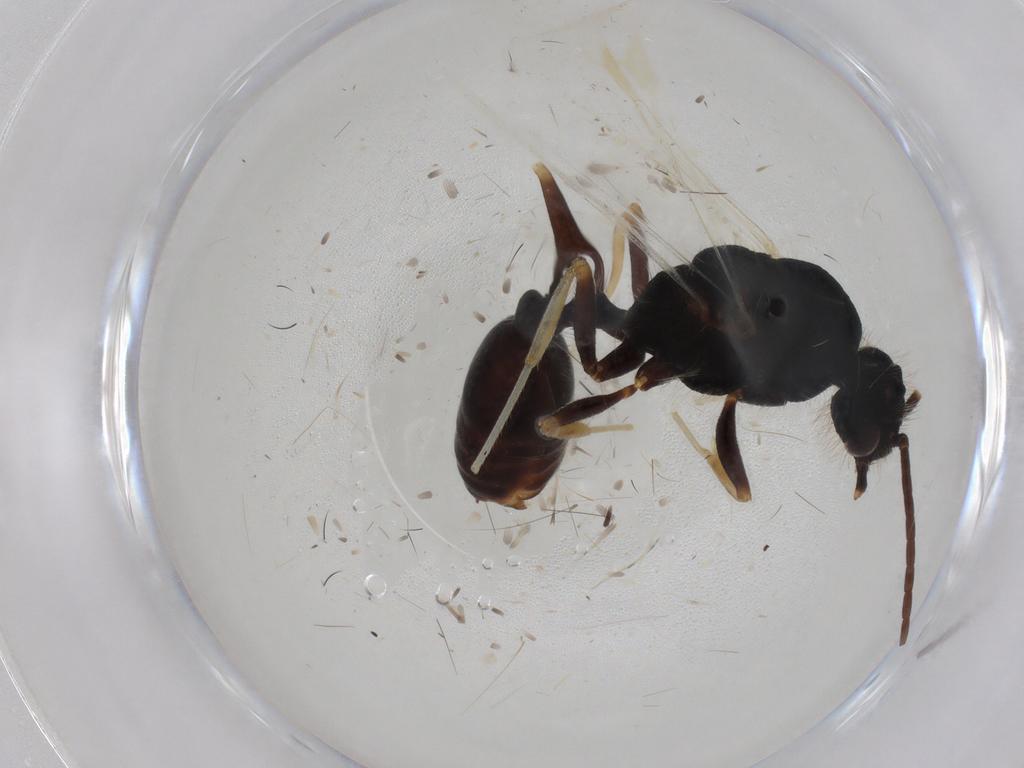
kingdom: Animalia
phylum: Arthropoda
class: Insecta
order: Hymenoptera
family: Formicidae
